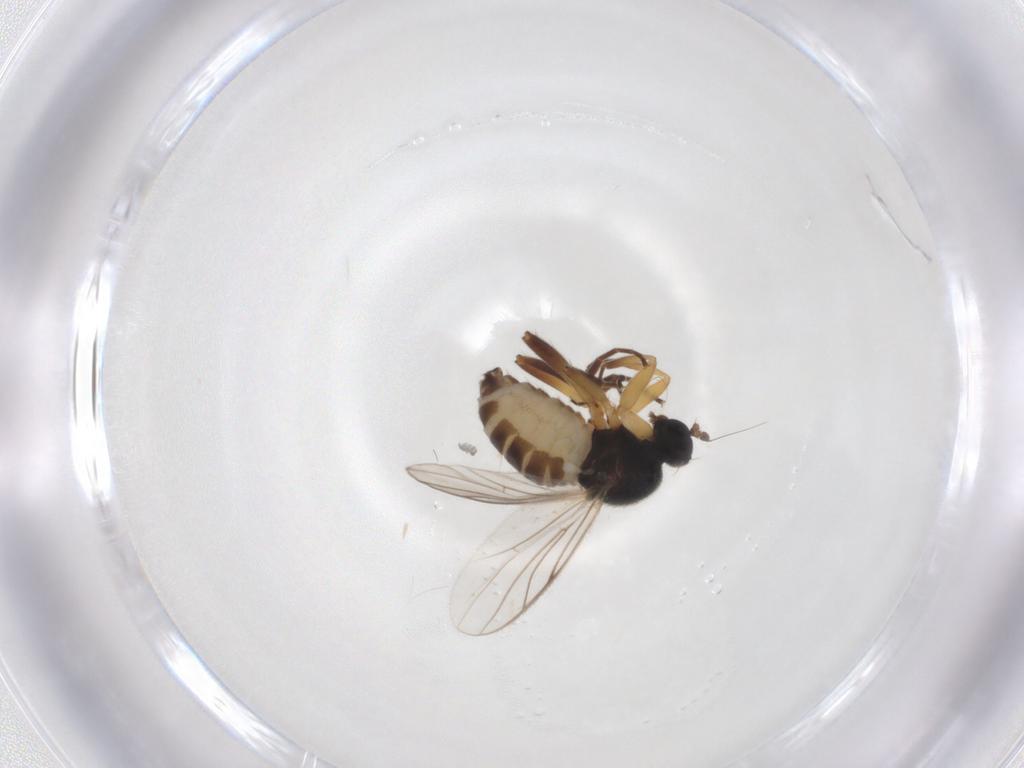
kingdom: Animalia
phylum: Arthropoda
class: Insecta
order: Diptera
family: Hybotidae
